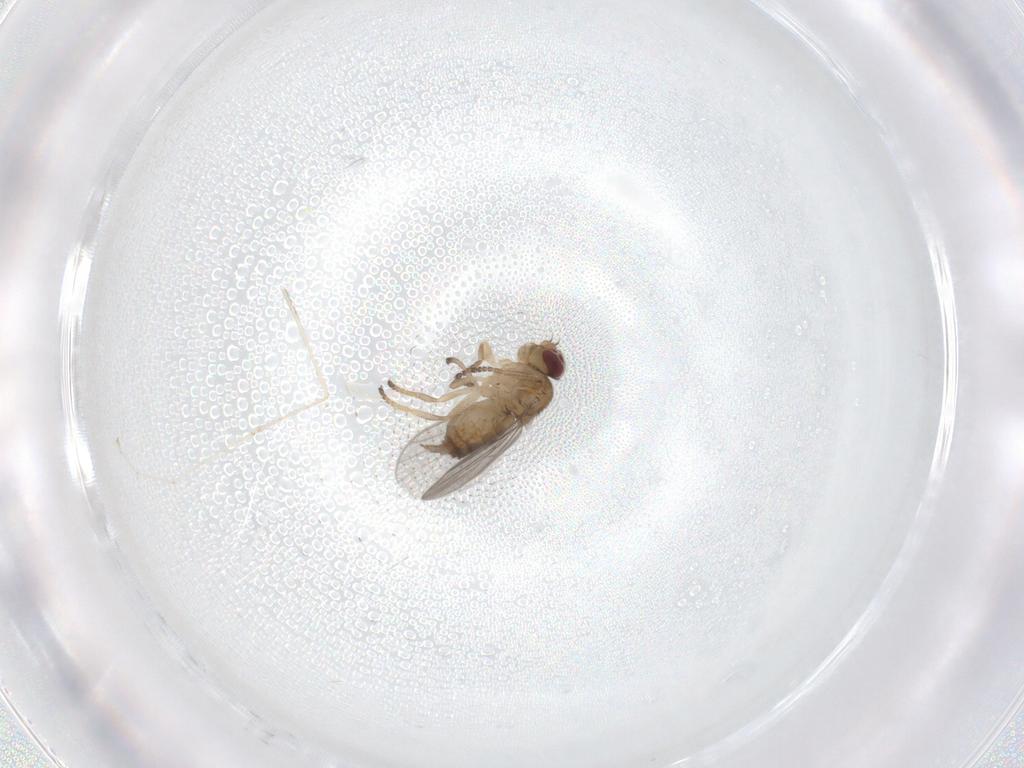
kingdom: Animalia
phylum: Arthropoda
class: Insecta
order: Diptera
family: Chloropidae
